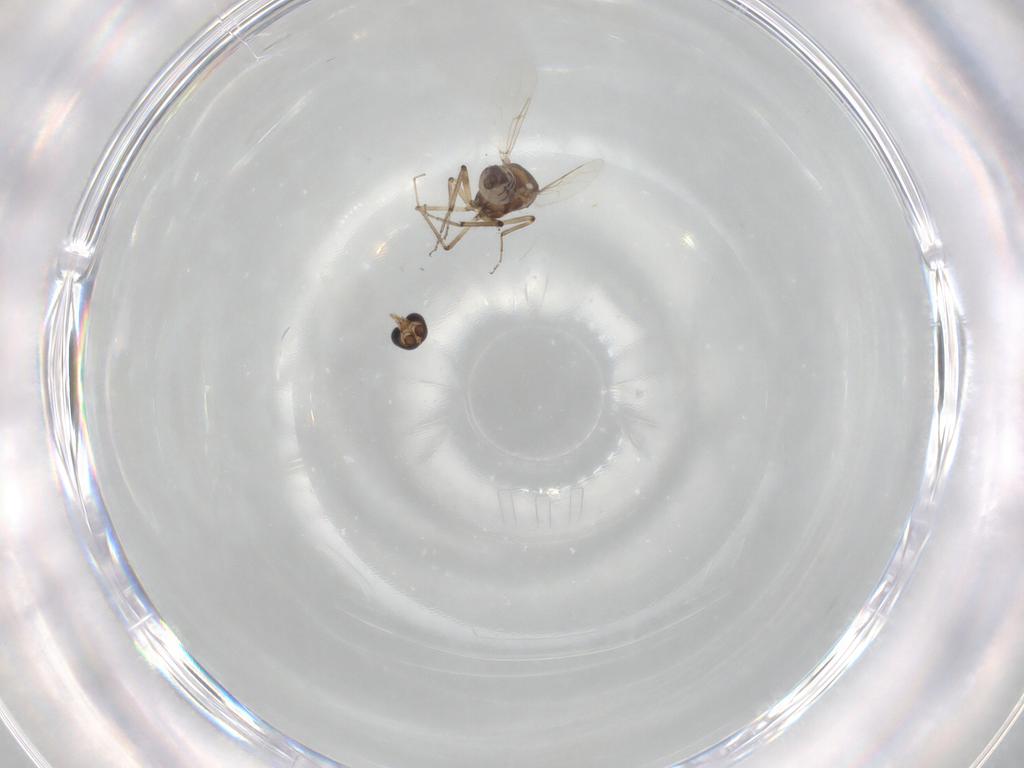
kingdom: Animalia
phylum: Arthropoda
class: Insecta
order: Diptera
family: Ceratopogonidae
